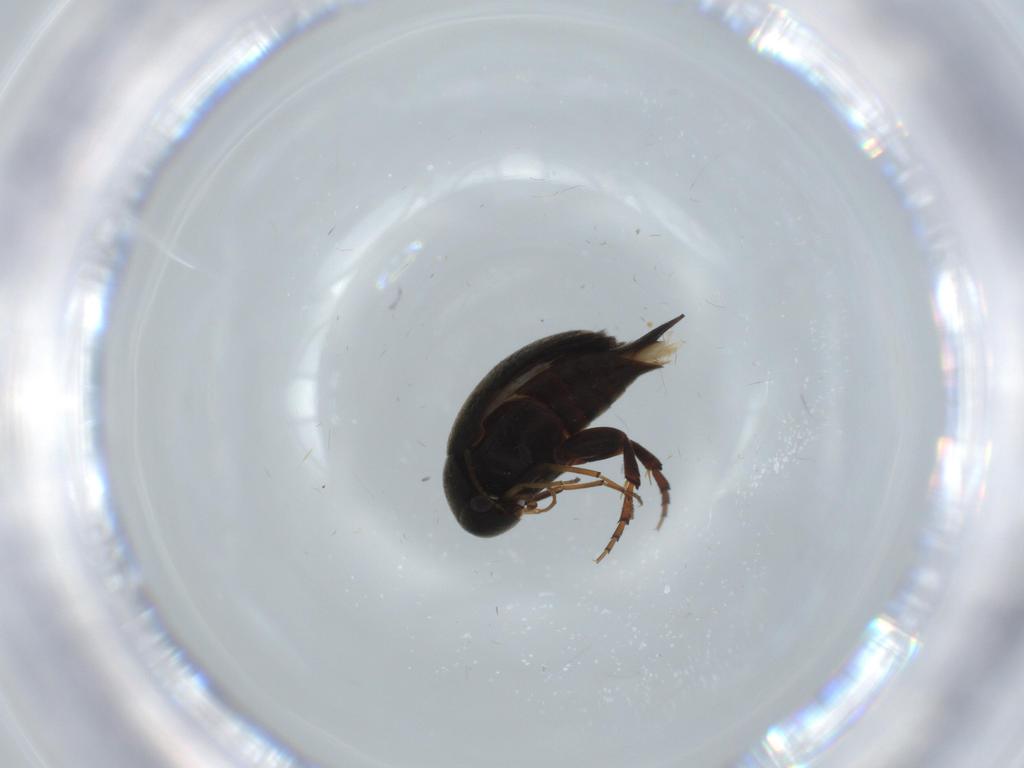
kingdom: Animalia
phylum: Arthropoda
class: Insecta
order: Coleoptera
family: Mordellidae
